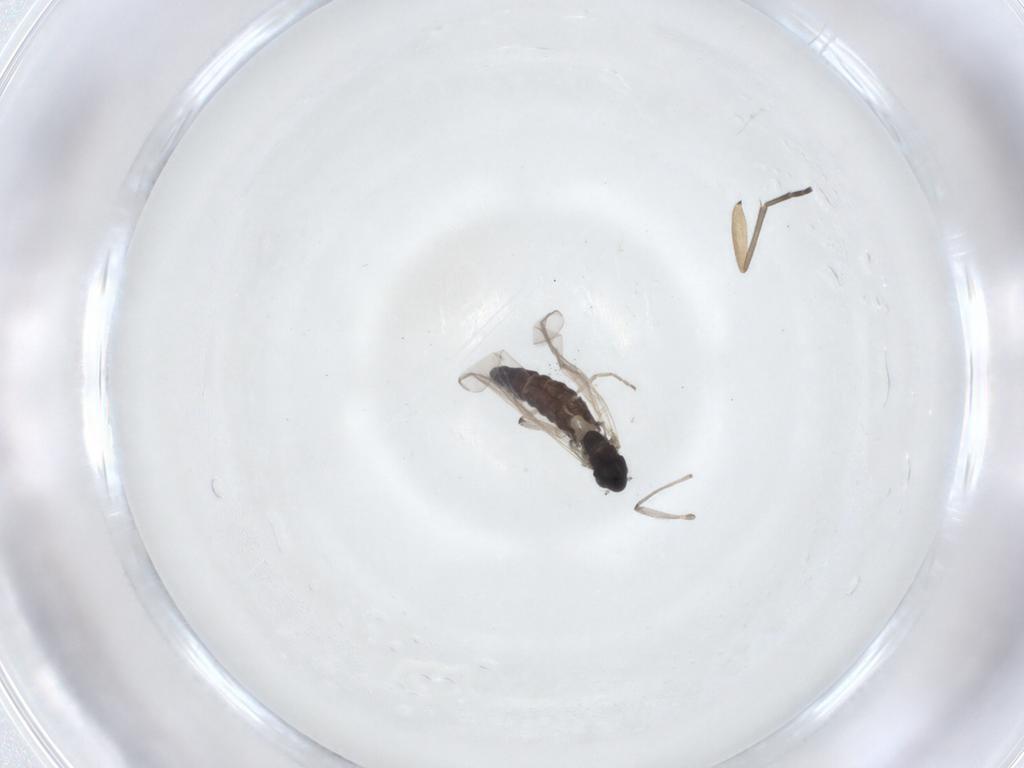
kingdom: Animalia
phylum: Arthropoda
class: Insecta
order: Diptera
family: Sciaridae
